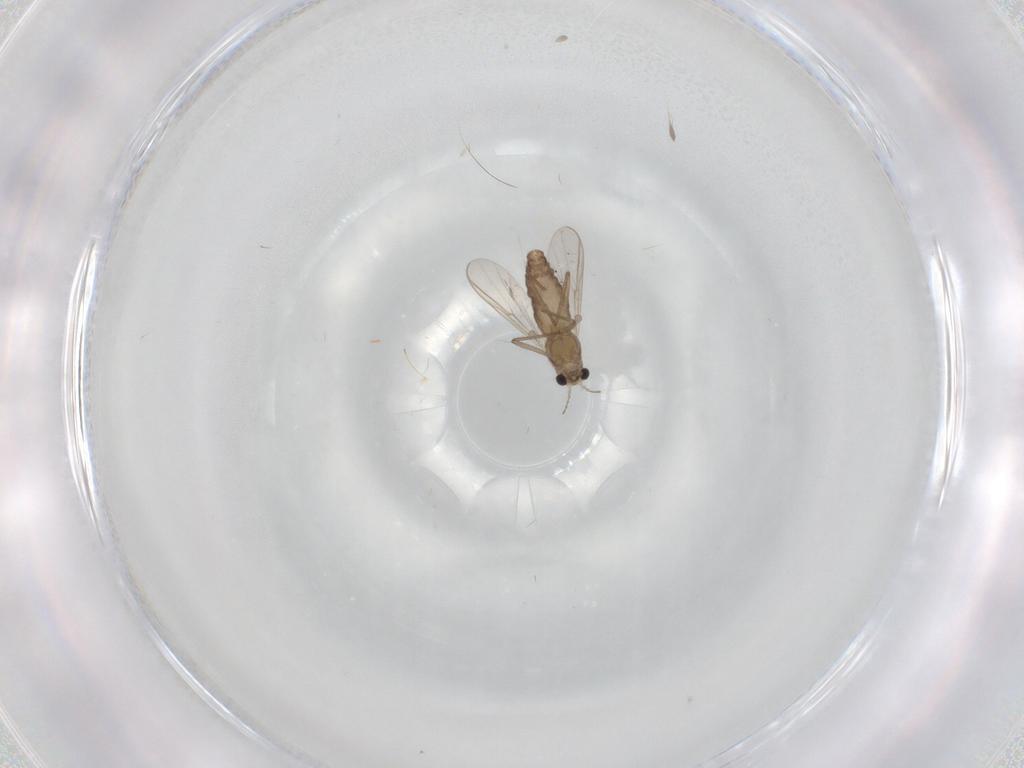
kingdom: Animalia
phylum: Arthropoda
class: Insecta
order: Diptera
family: Chironomidae
